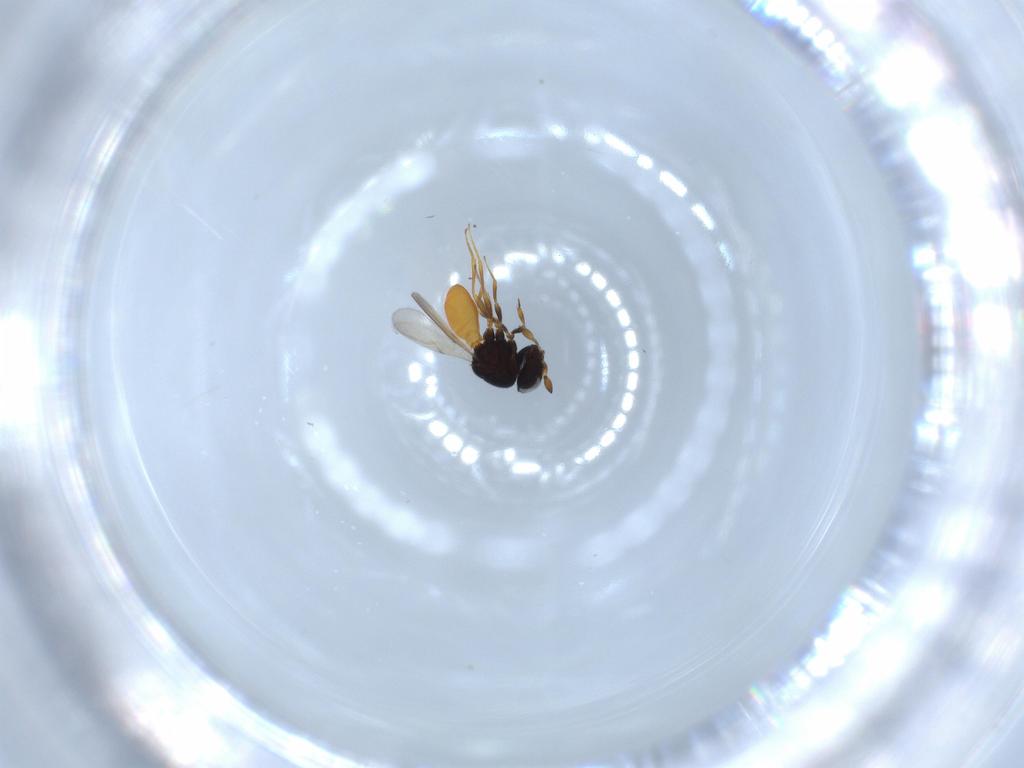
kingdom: Animalia
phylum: Arthropoda
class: Insecta
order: Hymenoptera
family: Scelionidae
